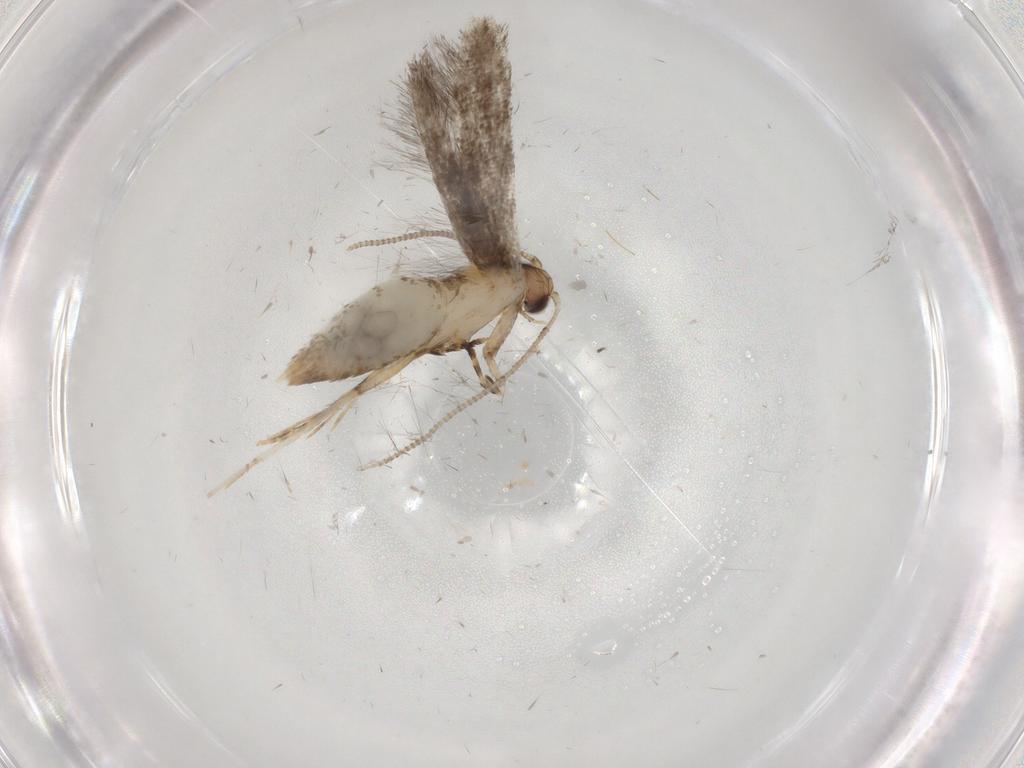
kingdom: Animalia
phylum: Arthropoda
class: Insecta
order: Lepidoptera
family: Tineidae
